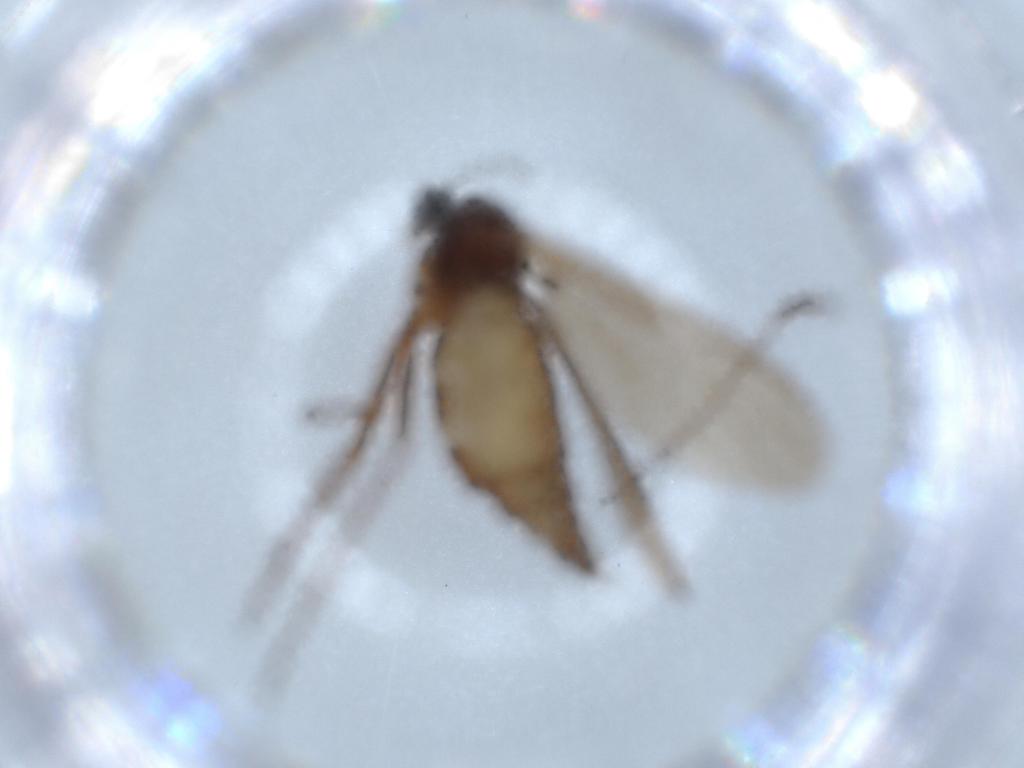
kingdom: Animalia
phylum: Arthropoda
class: Insecta
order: Diptera
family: Sciaridae
